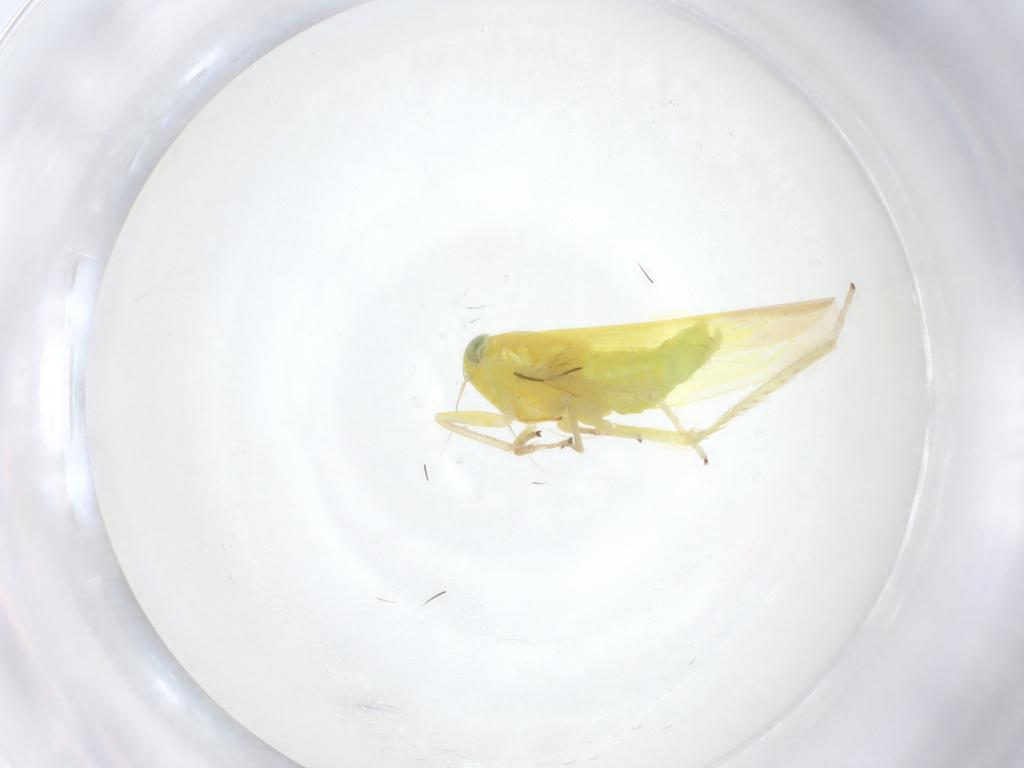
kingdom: Animalia
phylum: Arthropoda
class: Insecta
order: Hemiptera
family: Cicadellidae
